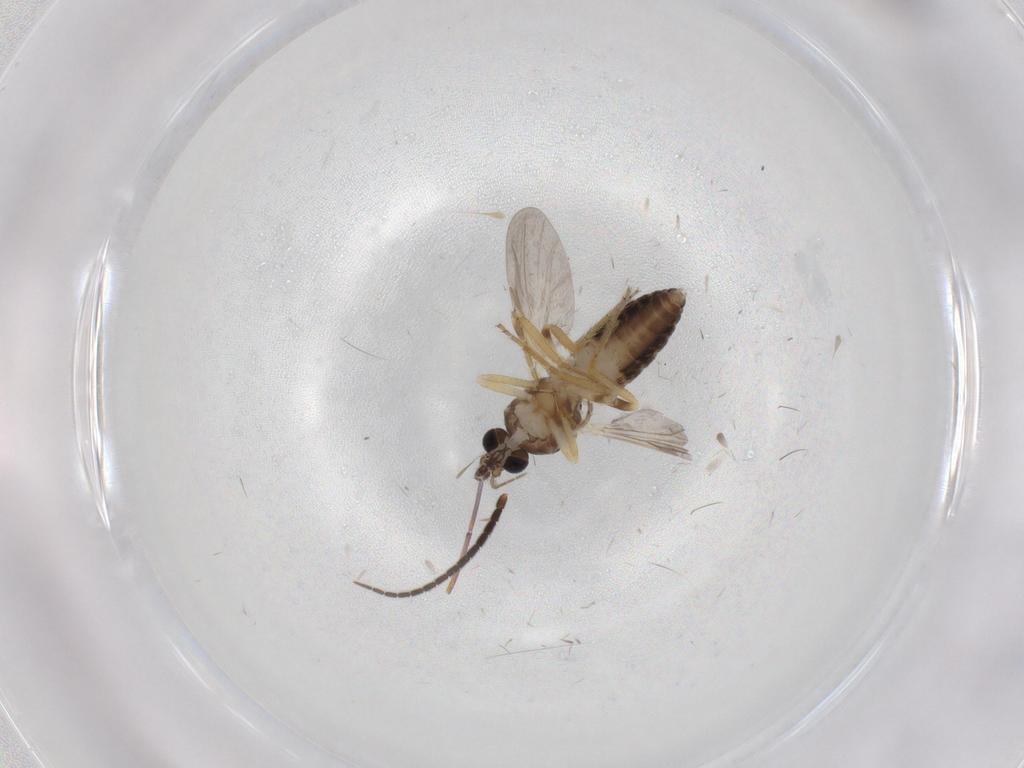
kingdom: Animalia
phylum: Arthropoda
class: Insecta
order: Diptera
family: Ceratopogonidae
